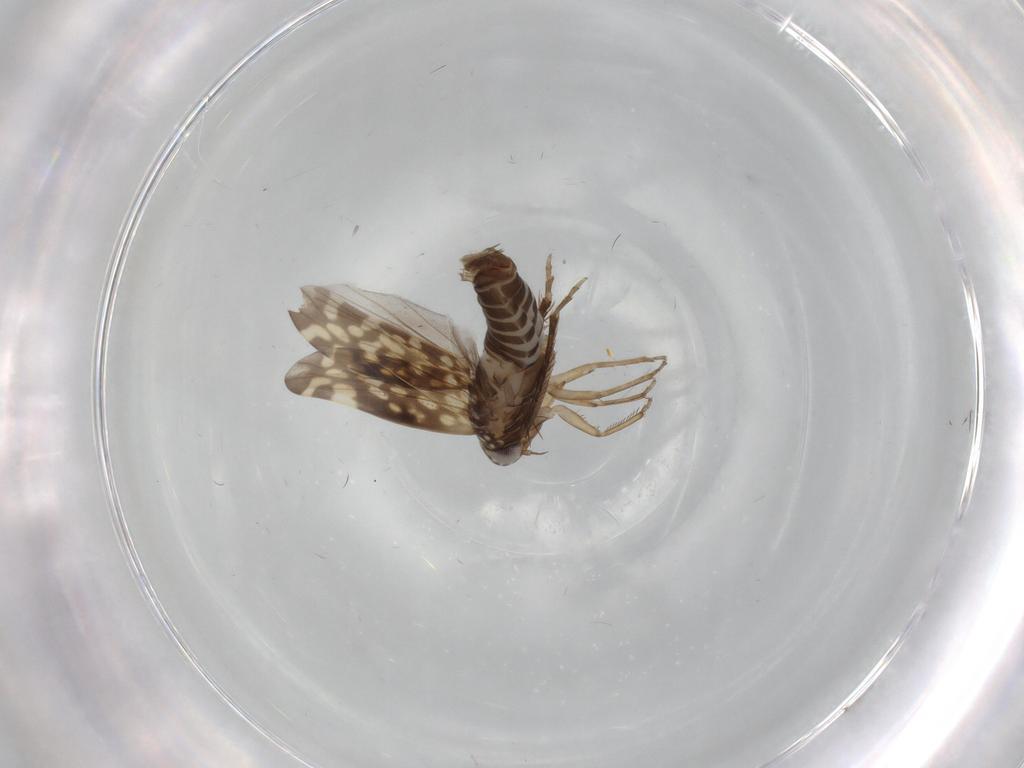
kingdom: Animalia
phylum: Arthropoda
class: Insecta
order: Hemiptera
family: Cicadellidae
